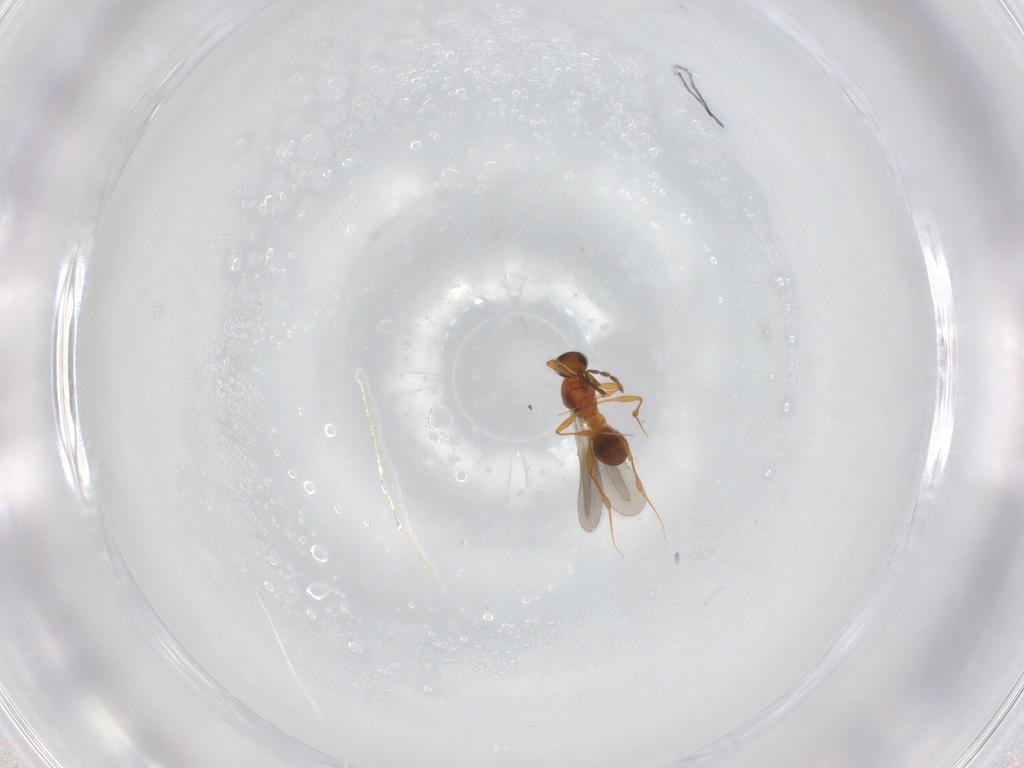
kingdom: Animalia
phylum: Arthropoda
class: Insecta
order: Hymenoptera
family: Platygastridae
